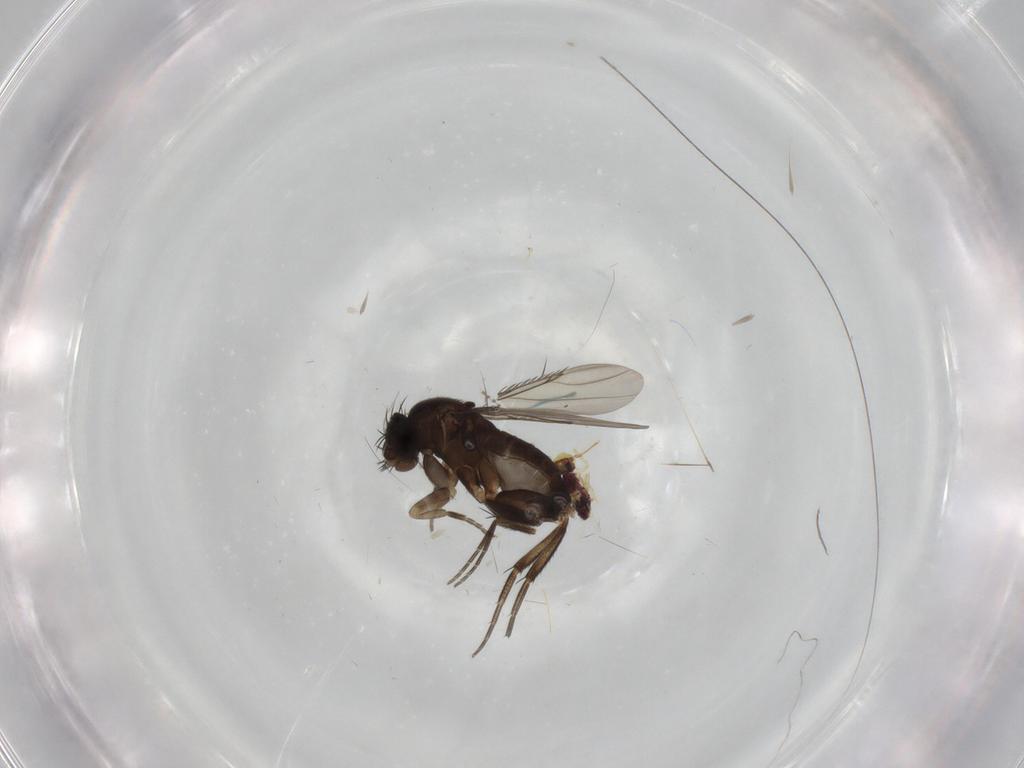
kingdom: Animalia
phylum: Arthropoda
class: Insecta
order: Diptera
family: Phoridae
